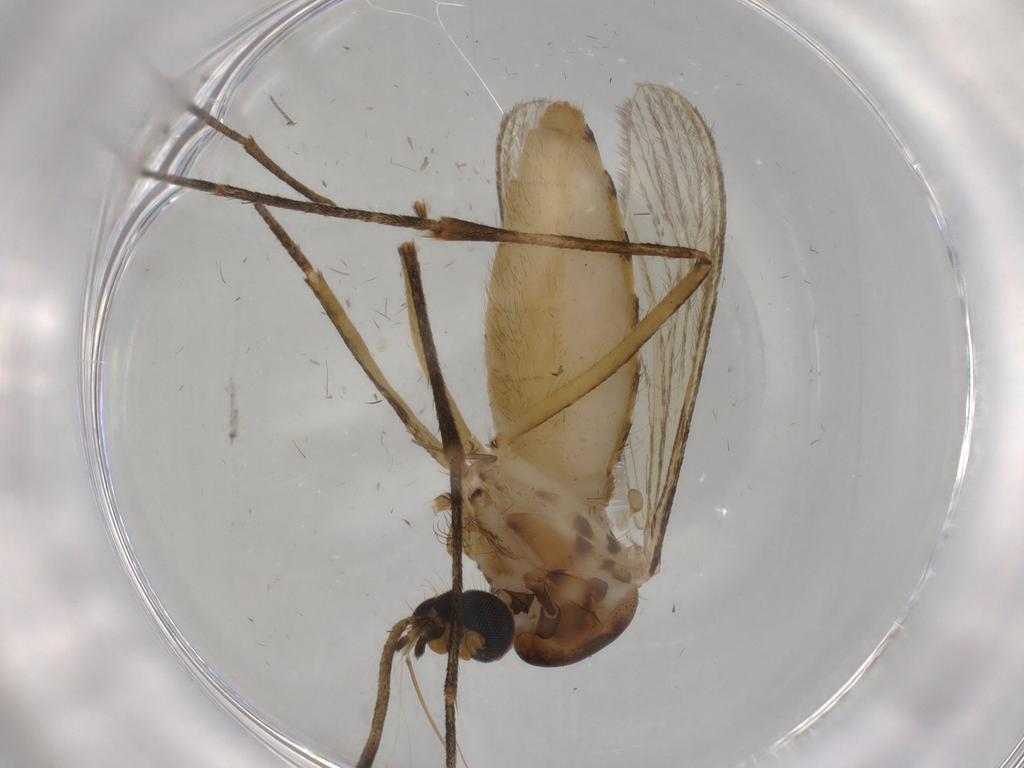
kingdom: Animalia
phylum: Arthropoda
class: Insecta
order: Diptera
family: Cecidomyiidae
